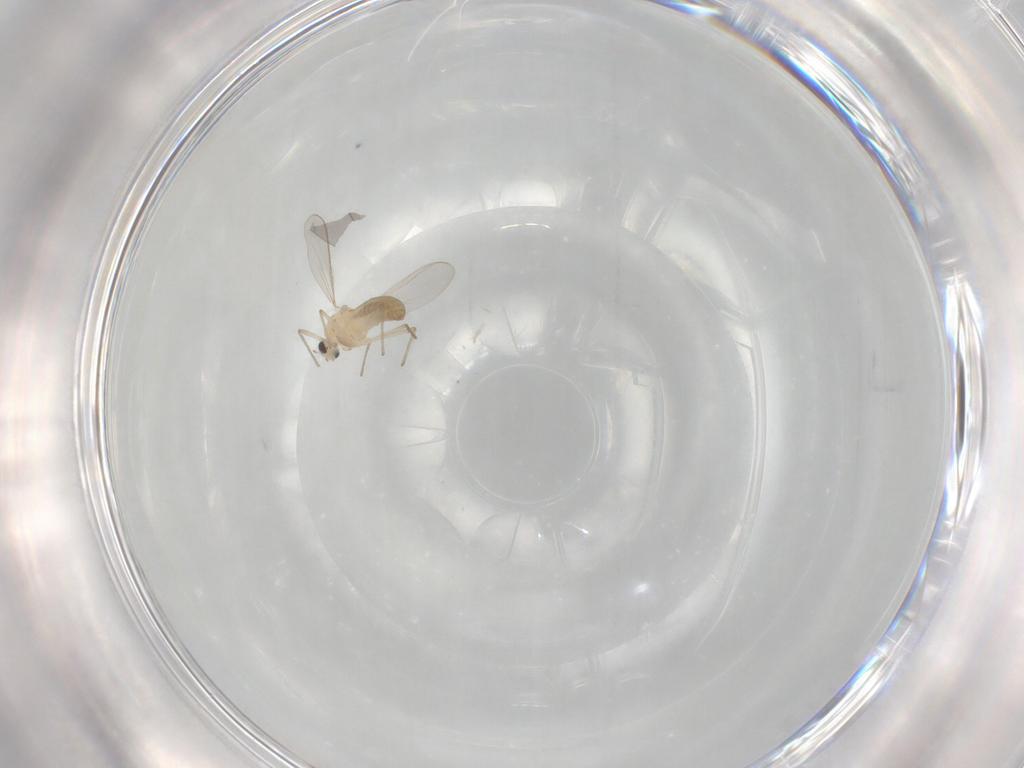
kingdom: Animalia
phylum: Arthropoda
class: Insecta
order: Diptera
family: Chironomidae
